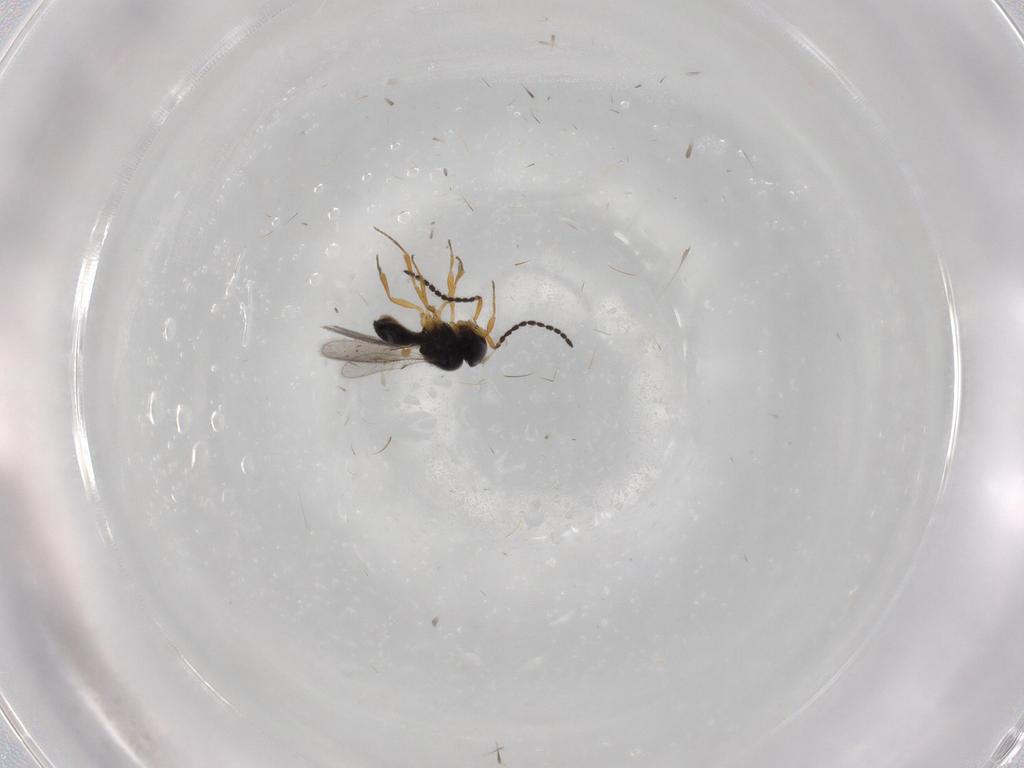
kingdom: Animalia
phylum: Arthropoda
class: Insecta
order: Hymenoptera
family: Scelionidae
